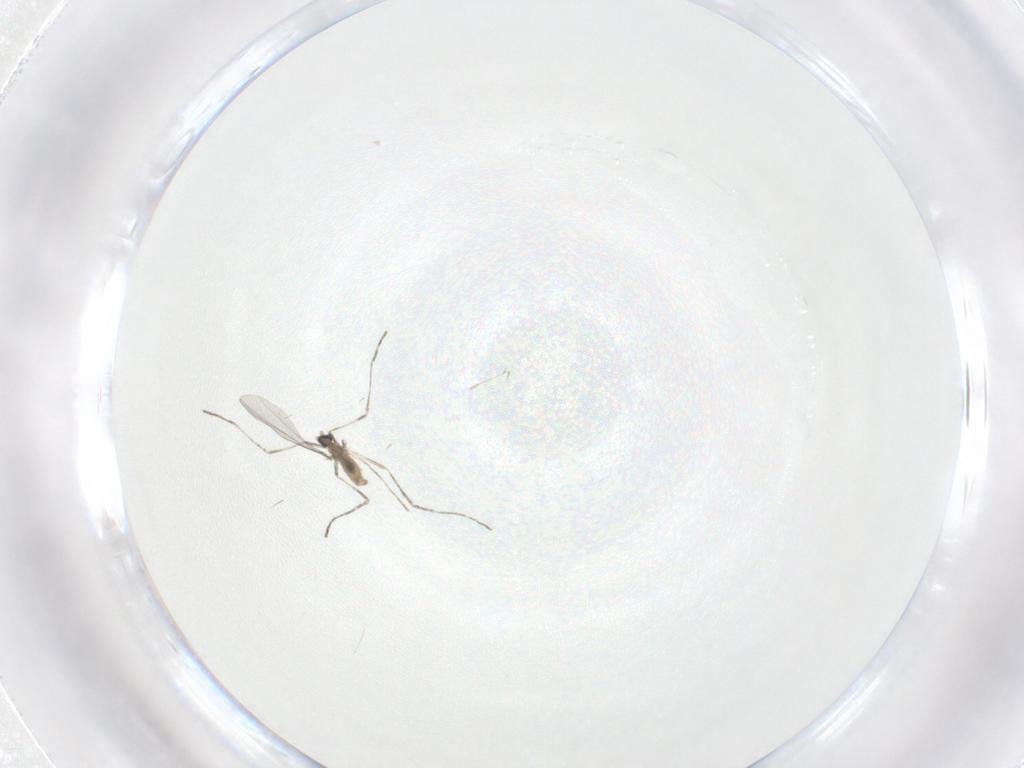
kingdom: Animalia
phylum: Arthropoda
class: Insecta
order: Diptera
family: Cecidomyiidae
